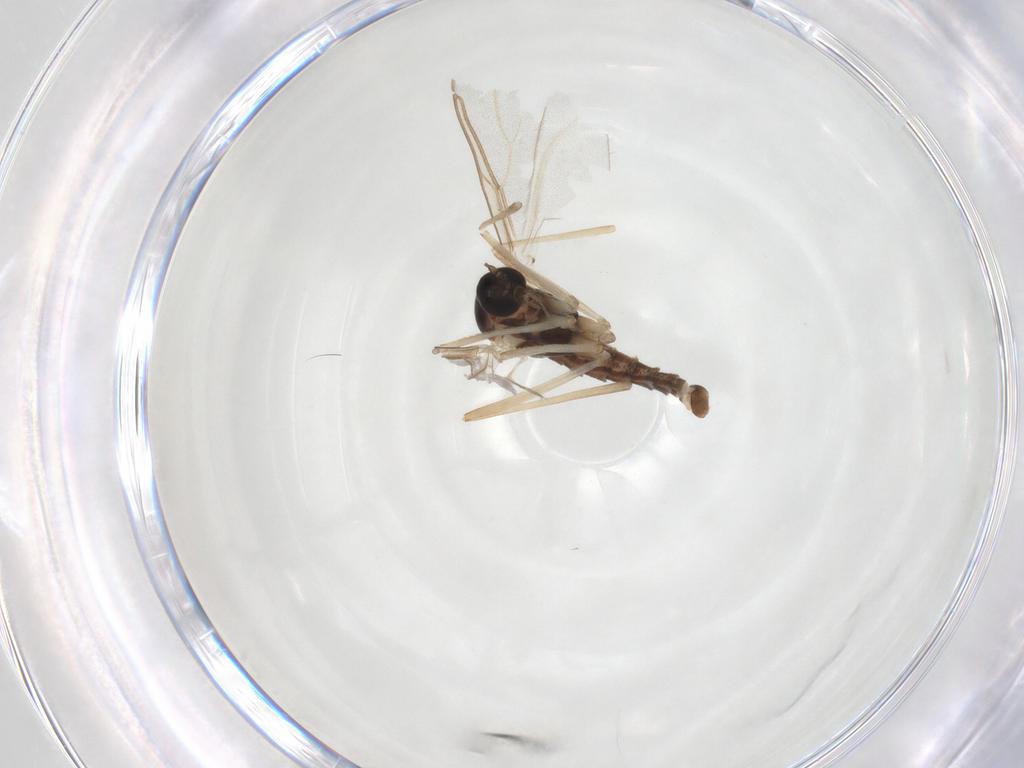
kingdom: Animalia
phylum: Arthropoda
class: Insecta
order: Diptera
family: Cecidomyiidae
